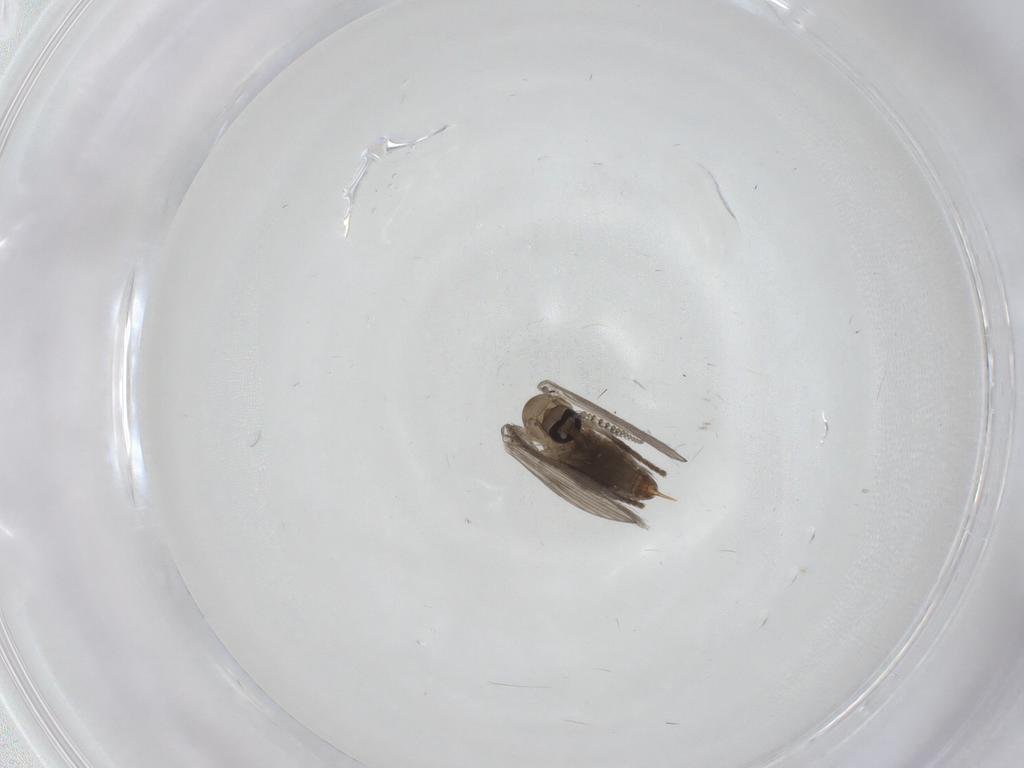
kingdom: Animalia
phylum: Arthropoda
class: Insecta
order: Diptera
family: Psychodidae
